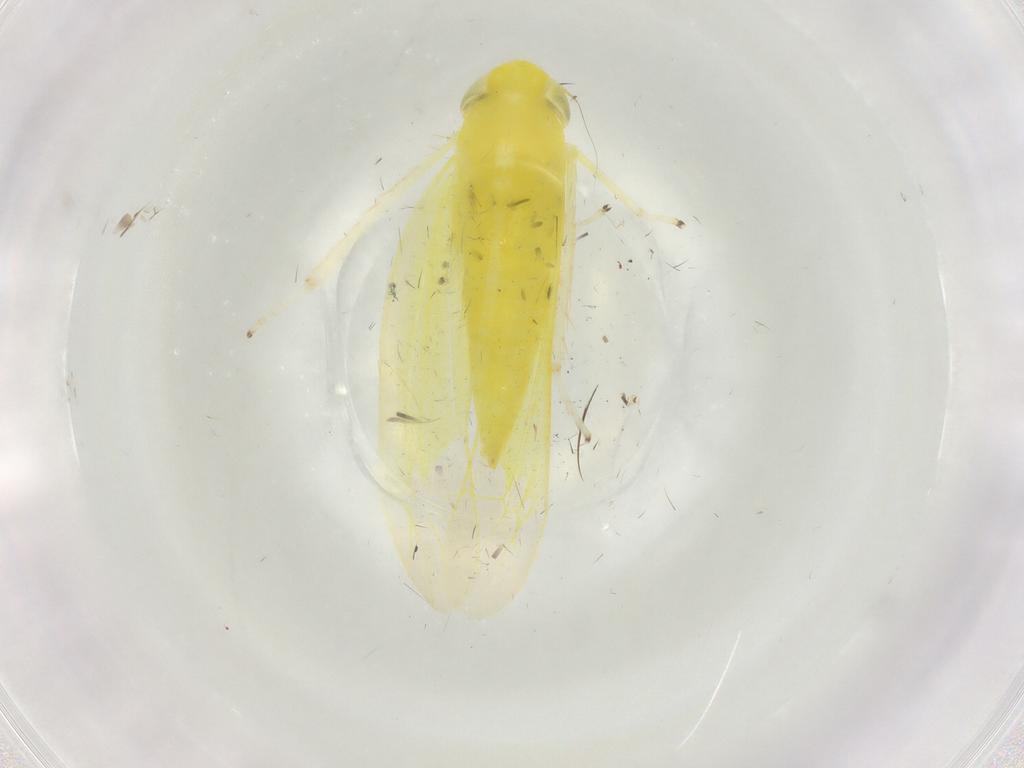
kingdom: Animalia
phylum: Arthropoda
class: Insecta
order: Hemiptera
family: Cicadellidae
